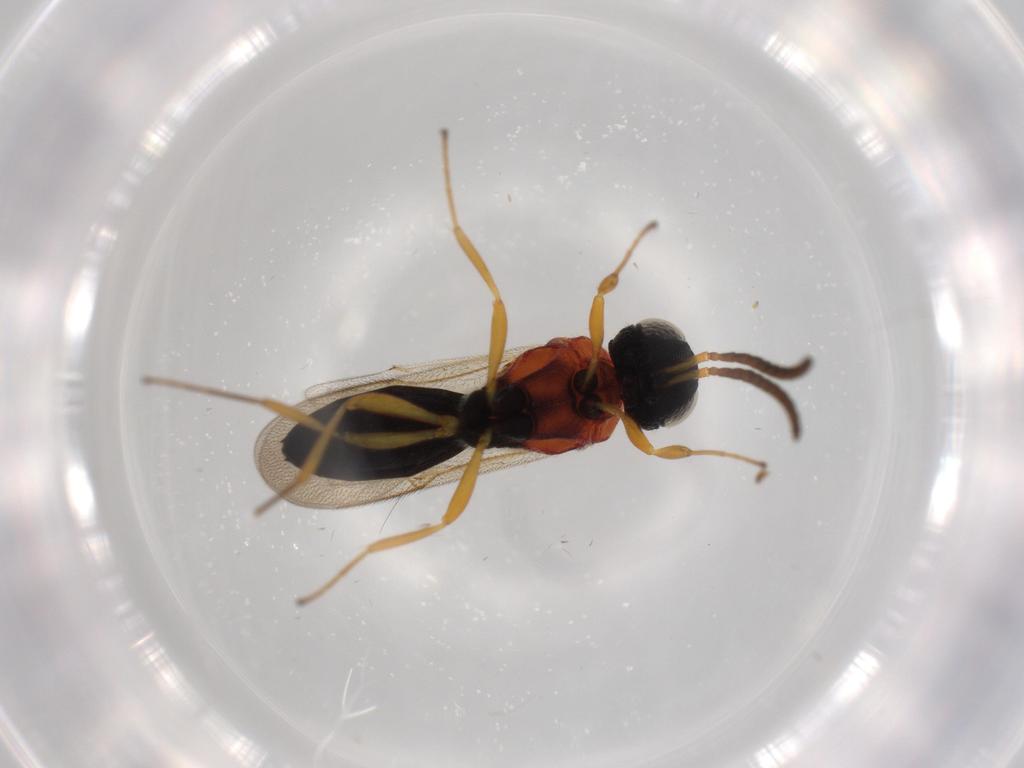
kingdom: Animalia
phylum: Arthropoda
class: Insecta
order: Hymenoptera
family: Scelionidae
